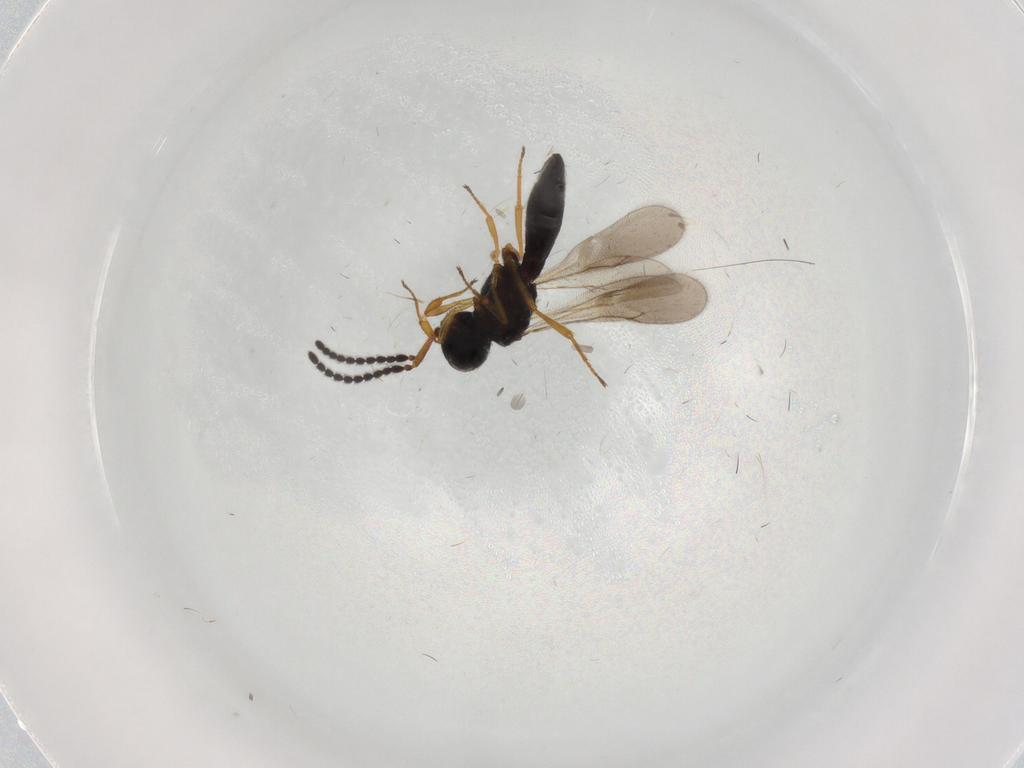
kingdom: Animalia
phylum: Arthropoda
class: Insecta
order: Hymenoptera
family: Scelionidae
